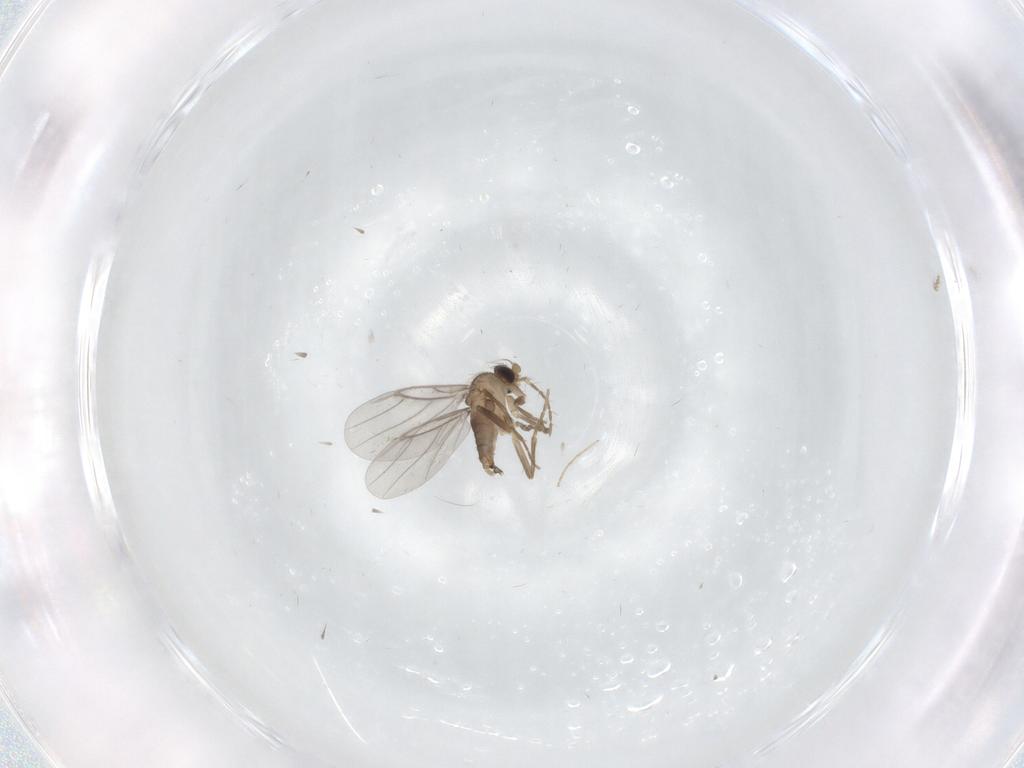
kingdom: Animalia
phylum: Arthropoda
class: Insecta
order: Diptera
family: Ceratopogonidae
